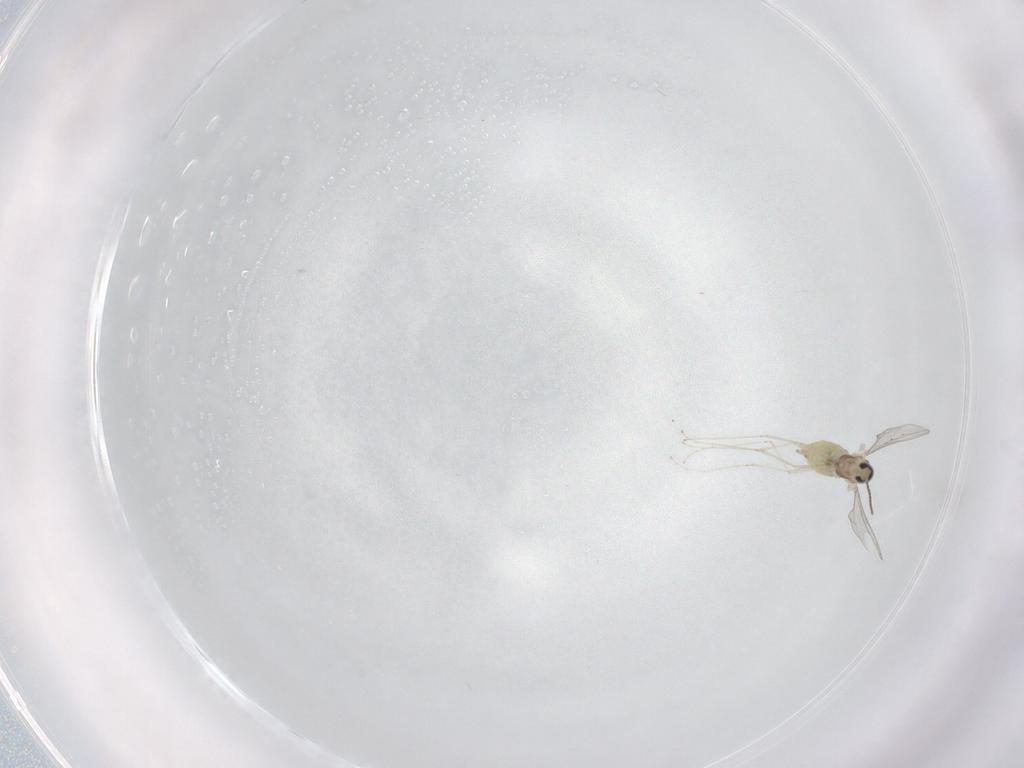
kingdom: Animalia
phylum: Arthropoda
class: Insecta
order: Diptera
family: Cecidomyiidae
